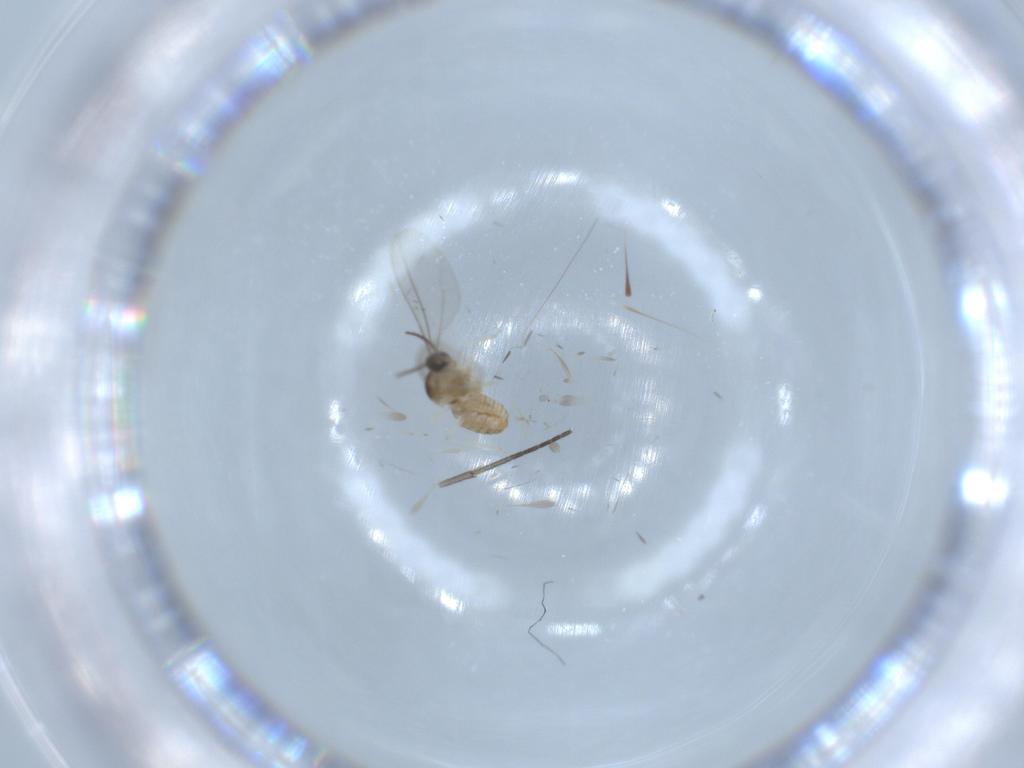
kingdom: Animalia
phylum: Arthropoda
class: Insecta
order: Diptera
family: Cecidomyiidae
